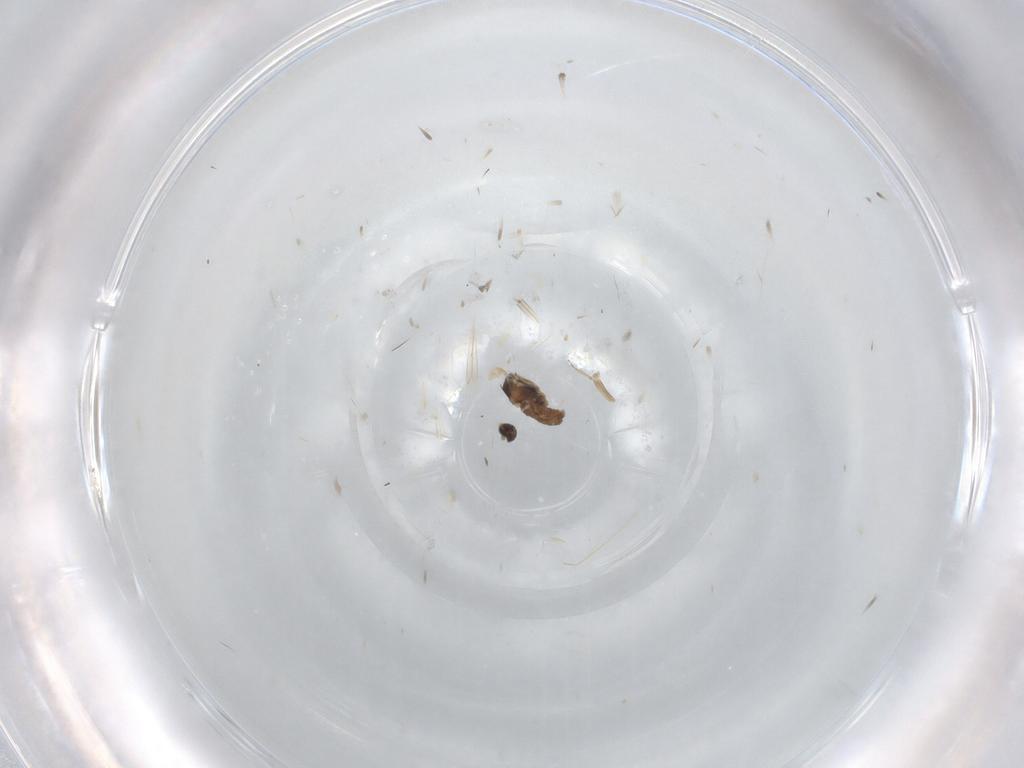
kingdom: Animalia
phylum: Arthropoda
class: Insecta
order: Diptera
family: Cecidomyiidae
